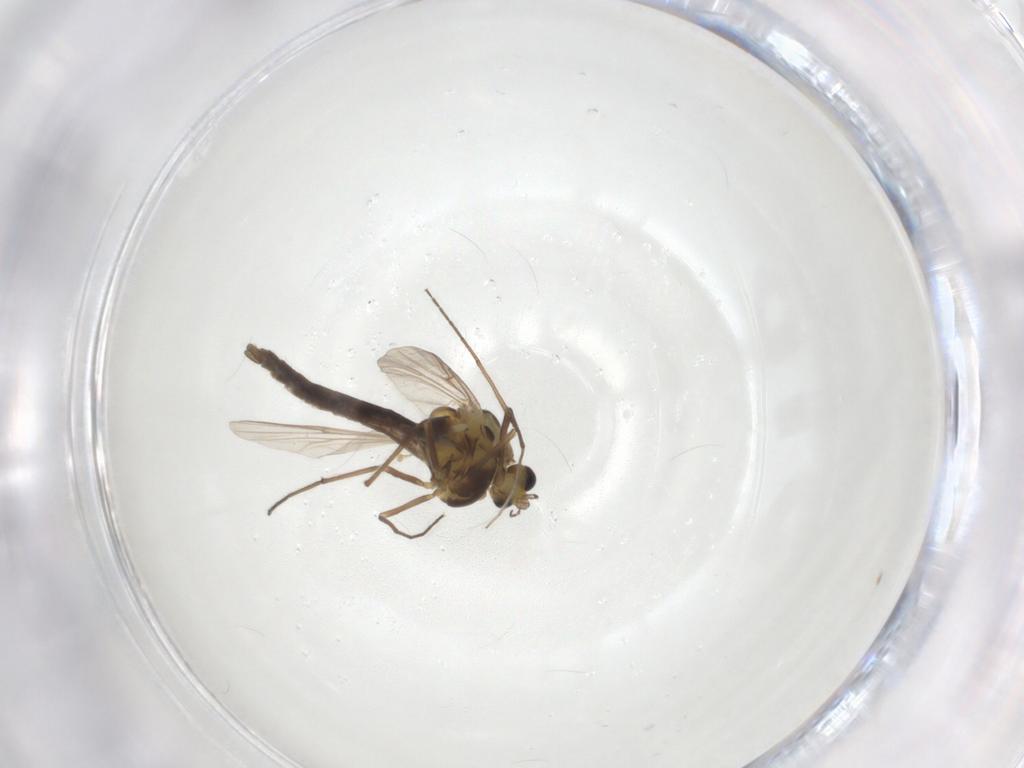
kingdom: Animalia
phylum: Arthropoda
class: Insecta
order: Diptera
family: Chironomidae
